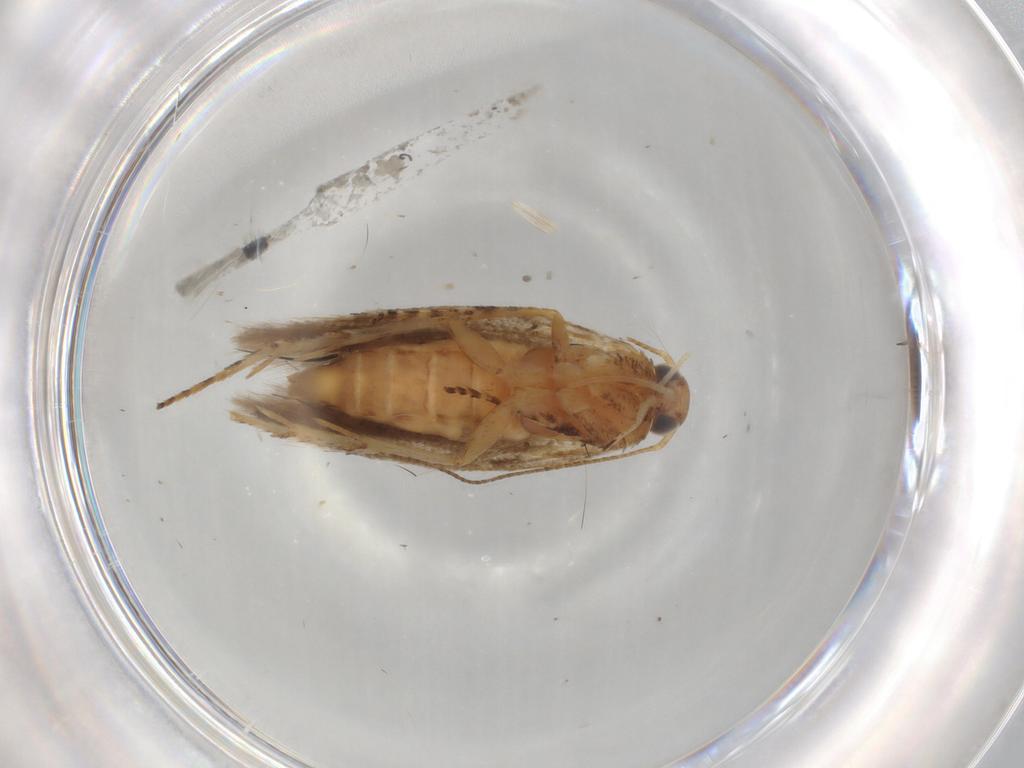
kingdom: Animalia
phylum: Arthropoda
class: Insecta
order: Lepidoptera
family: Gelechiidae
